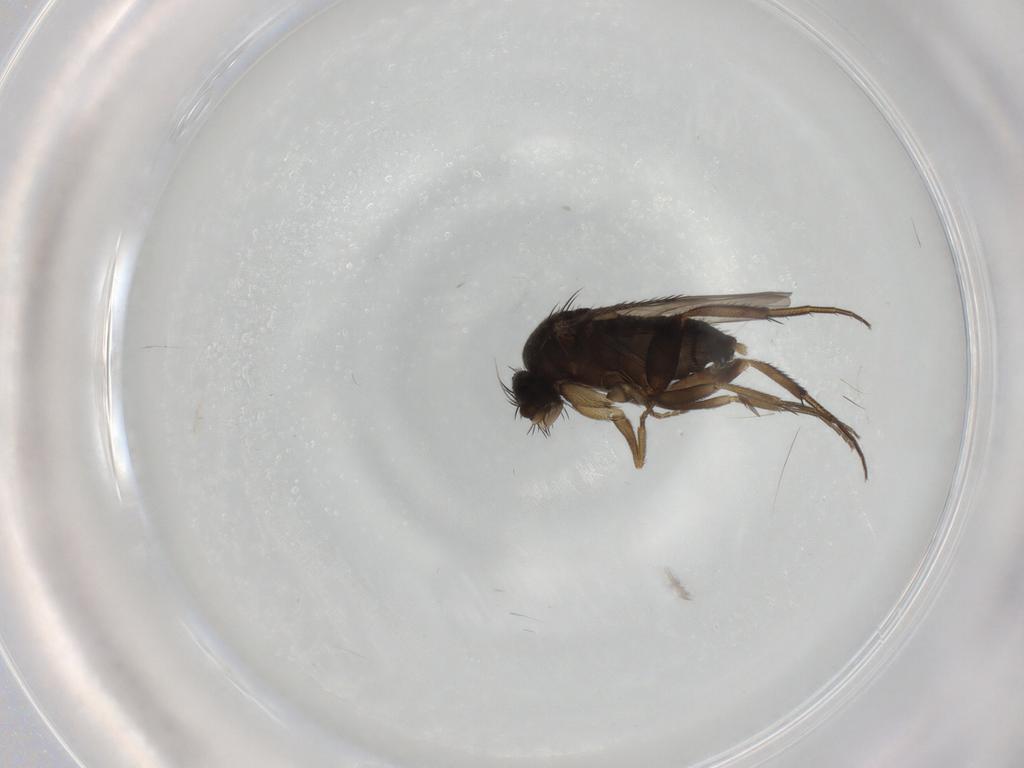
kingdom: Animalia
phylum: Arthropoda
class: Insecta
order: Diptera
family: Phoridae
